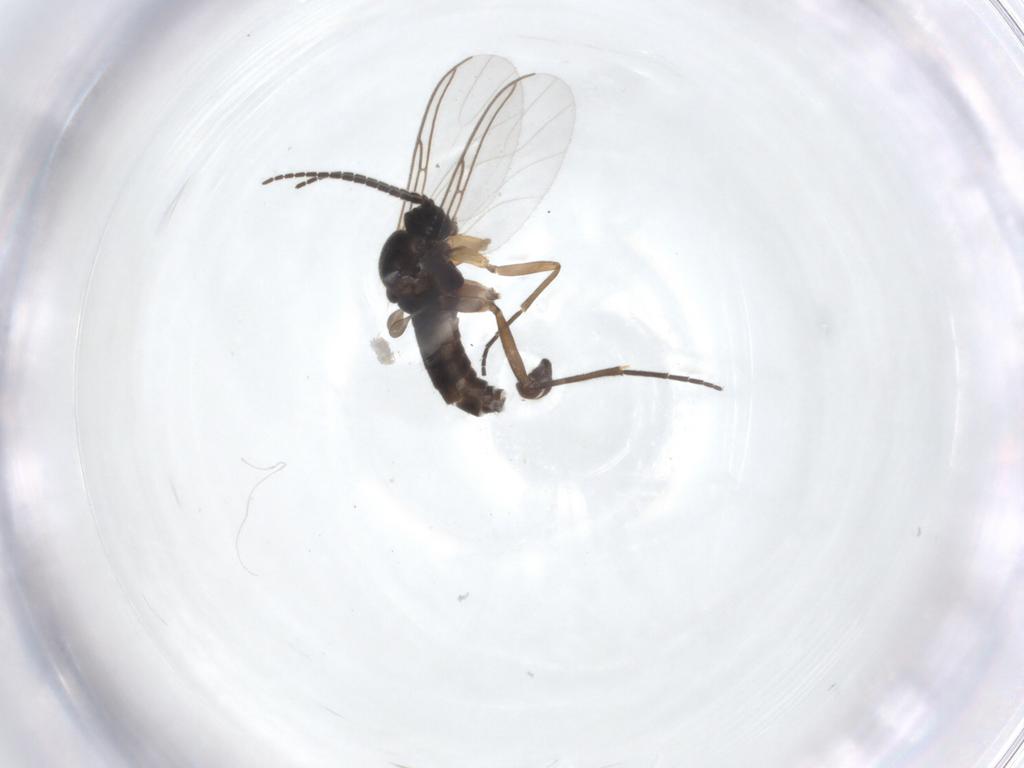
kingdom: Animalia
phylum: Arthropoda
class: Insecta
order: Diptera
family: Sciaridae
